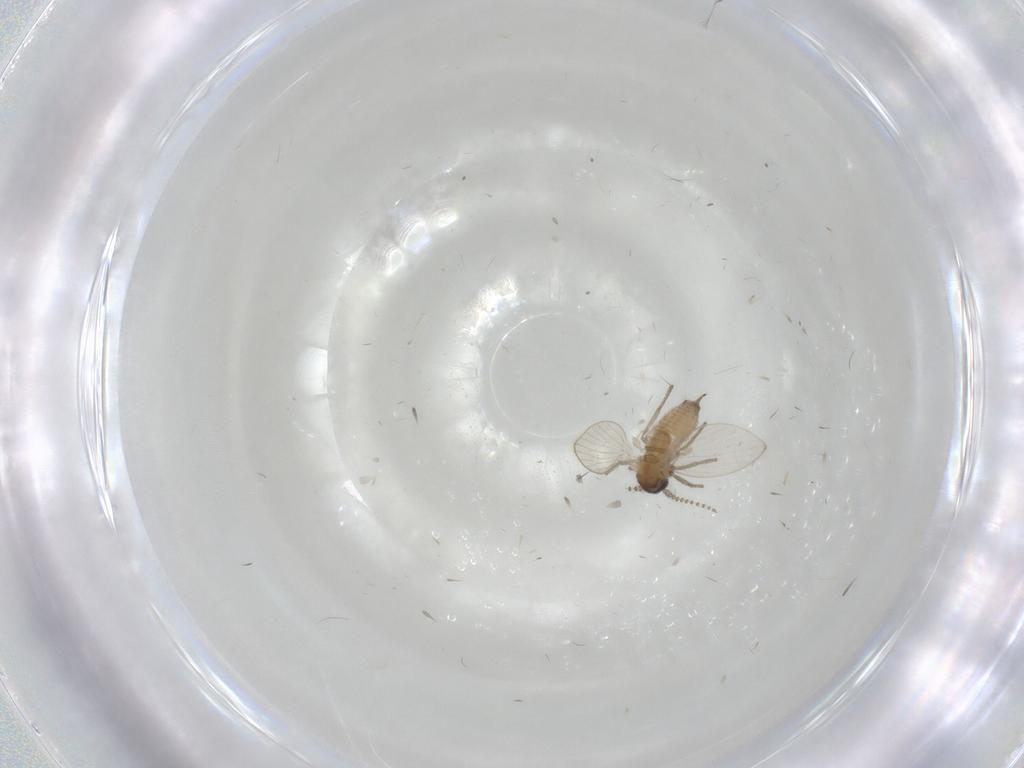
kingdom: Animalia
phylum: Arthropoda
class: Insecta
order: Diptera
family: Psychodidae
